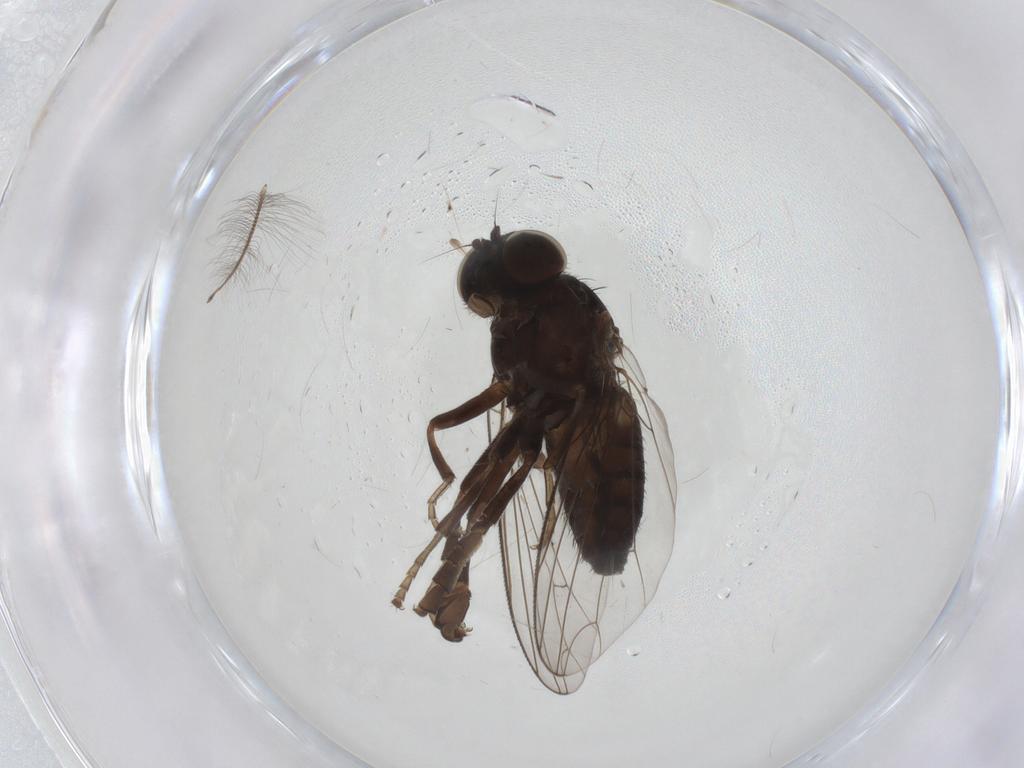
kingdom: Animalia
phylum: Arthropoda
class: Insecta
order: Diptera
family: Platypezidae
